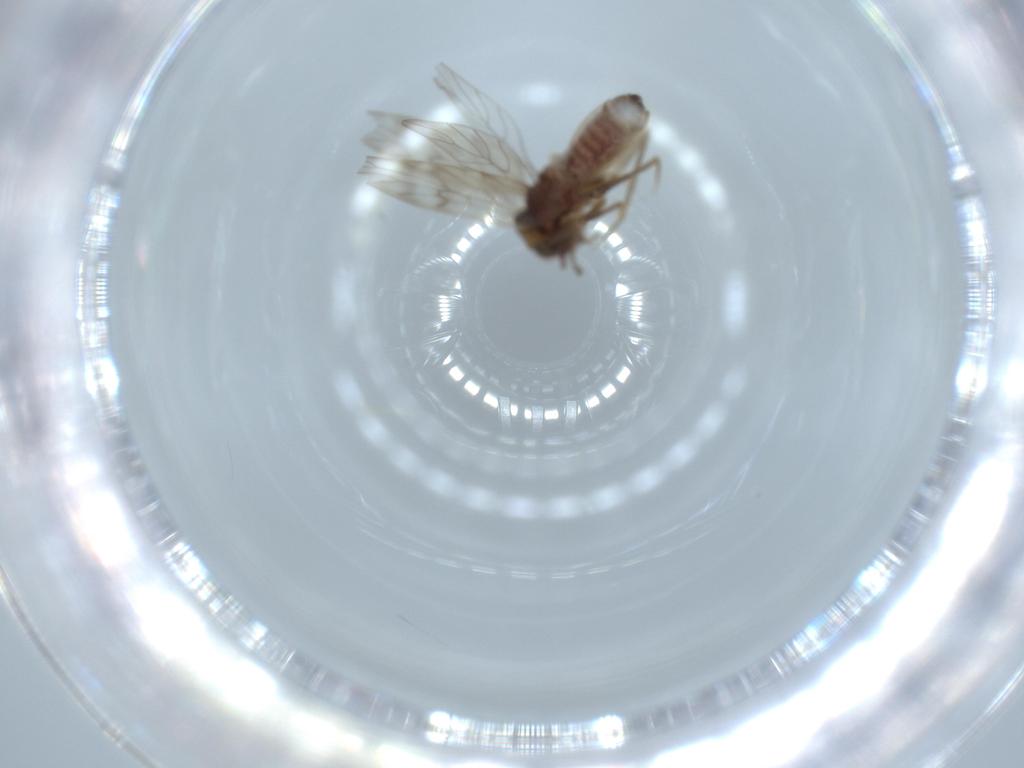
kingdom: Animalia
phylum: Arthropoda
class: Insecta
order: Psocodea
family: Lepidopsocidae
